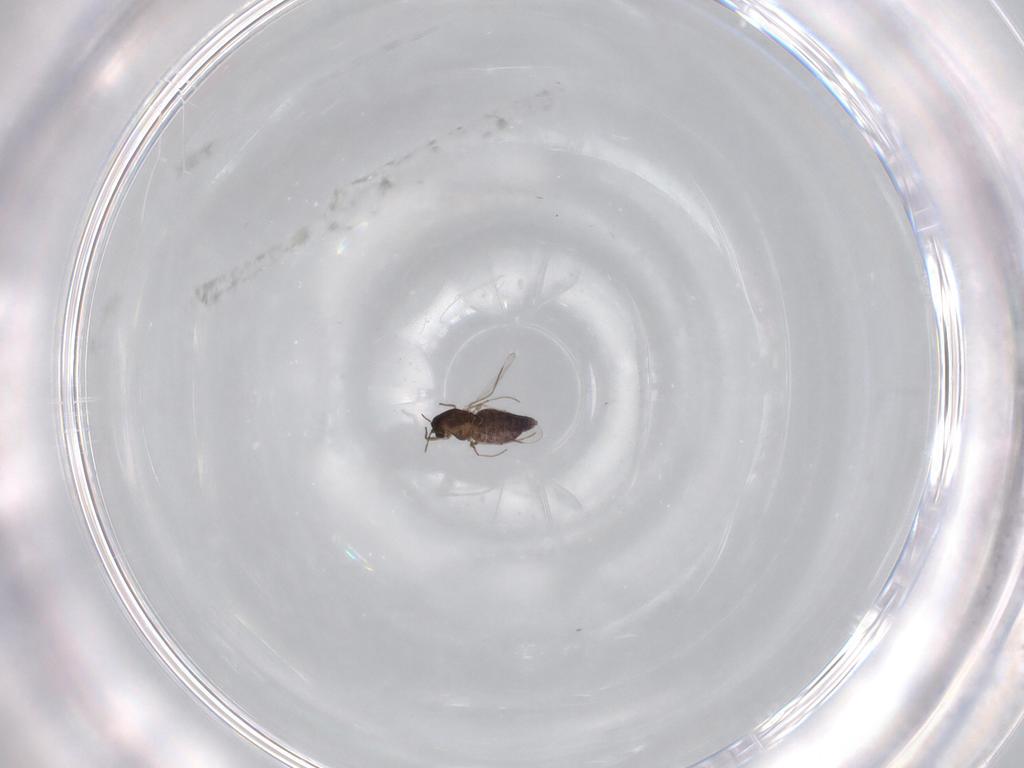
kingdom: Animalia
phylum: Arthropoda
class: Insecta
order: Diptera
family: Chironomidae
